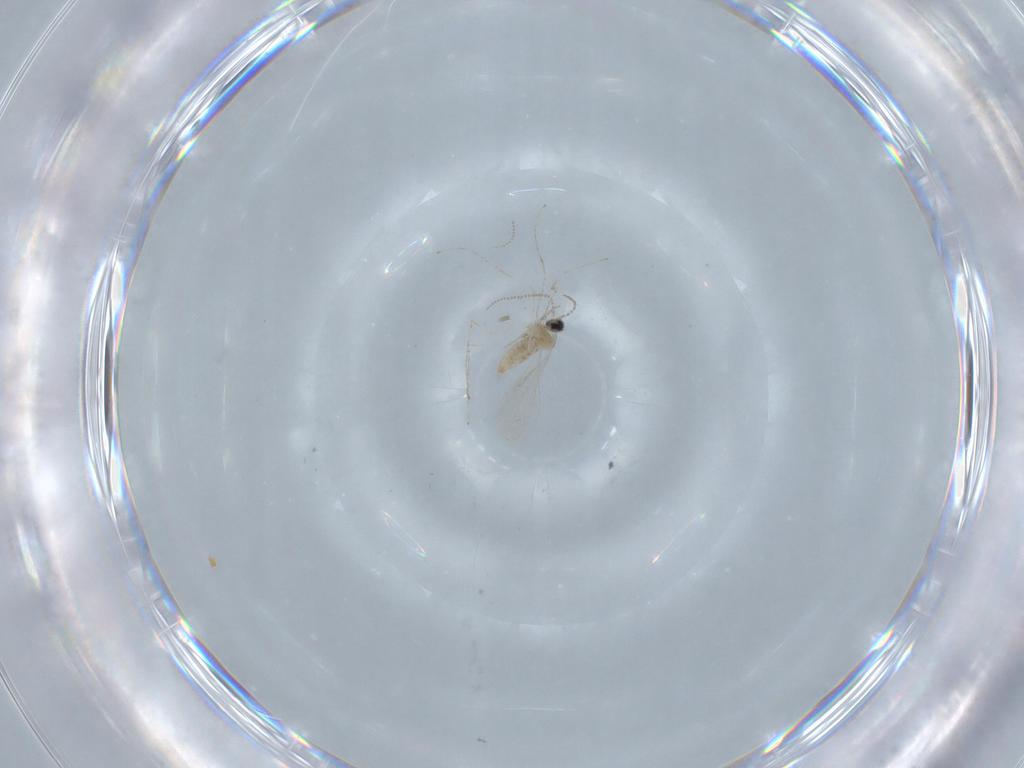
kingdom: Animalia
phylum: Arthropoda
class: Insecta
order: Diptera
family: Cecidomyiidae
